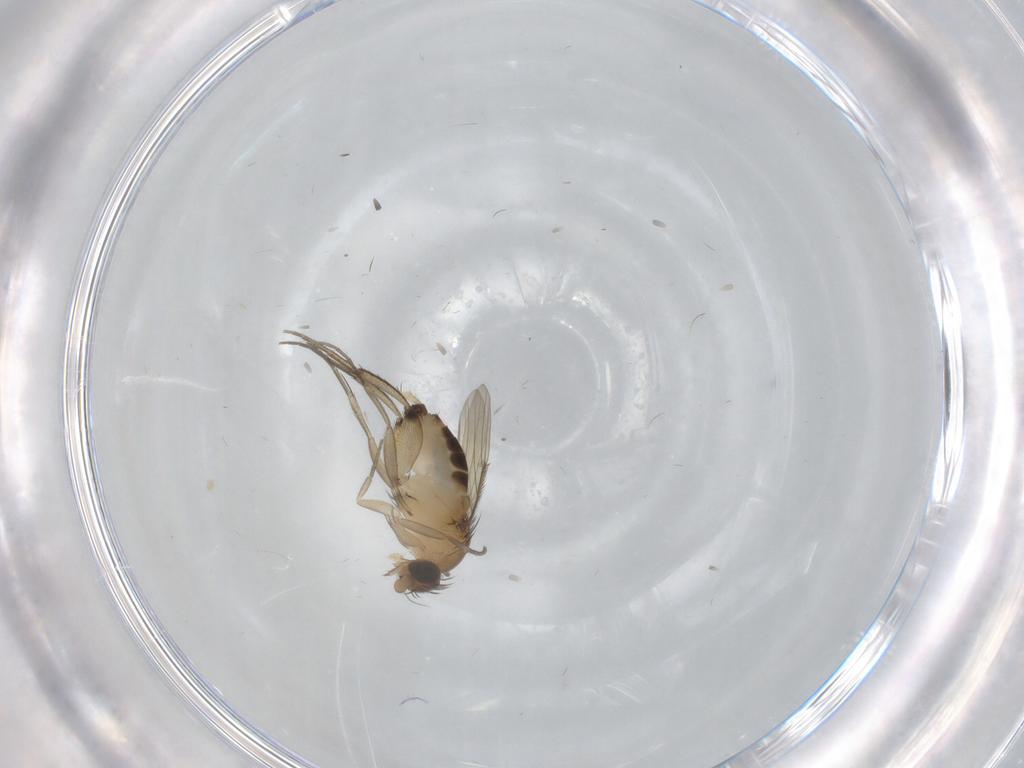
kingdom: Animalia
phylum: Arthropoda
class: Insecta
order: Diptera
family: Phoridae
